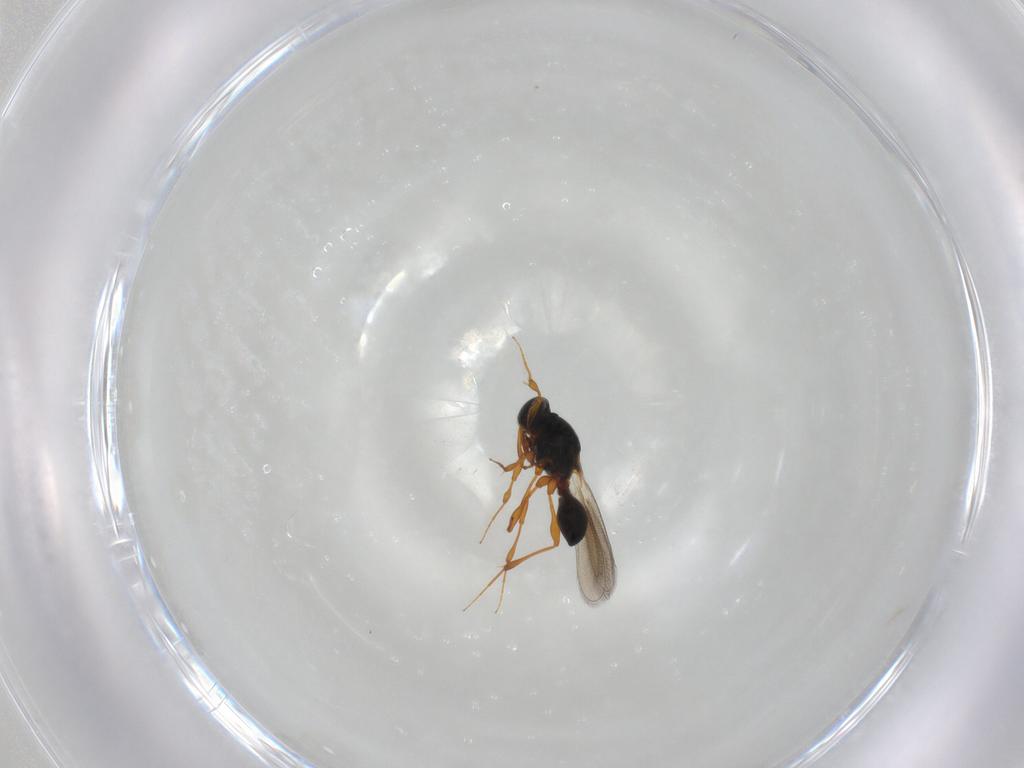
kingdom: Animalia
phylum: Arthropoda
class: Insecta
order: Hymenoptera
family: Platygastridae
